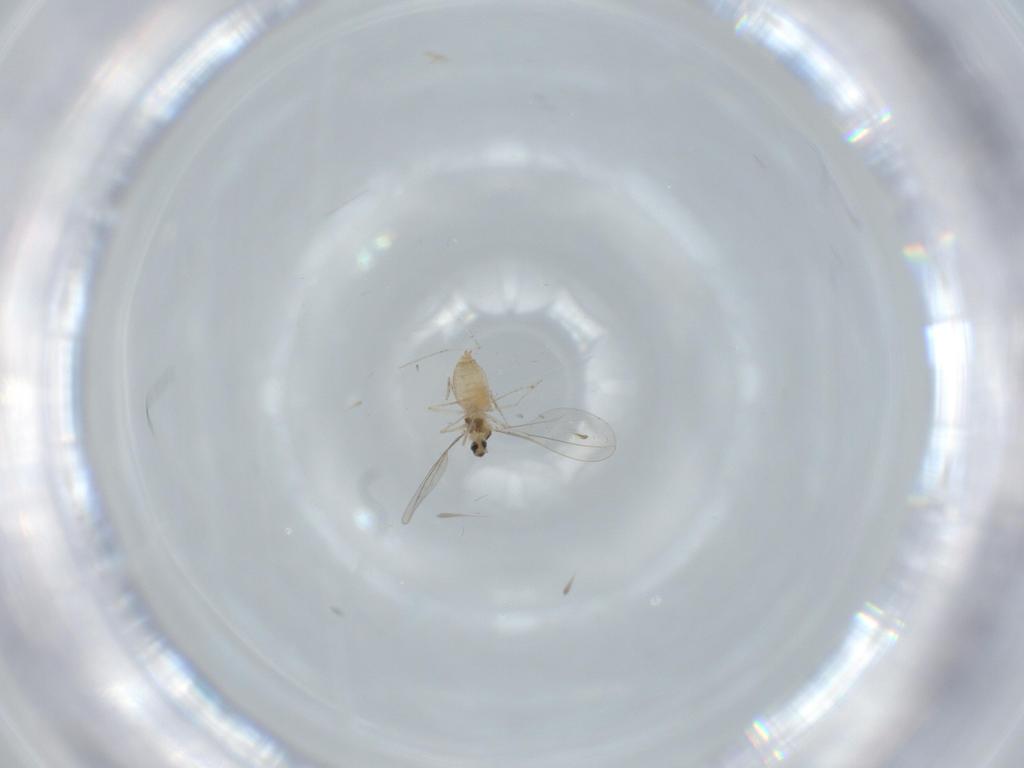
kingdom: Animalia
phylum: Arthropoda
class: Insecta
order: Diptera
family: Cecidomyiidae
